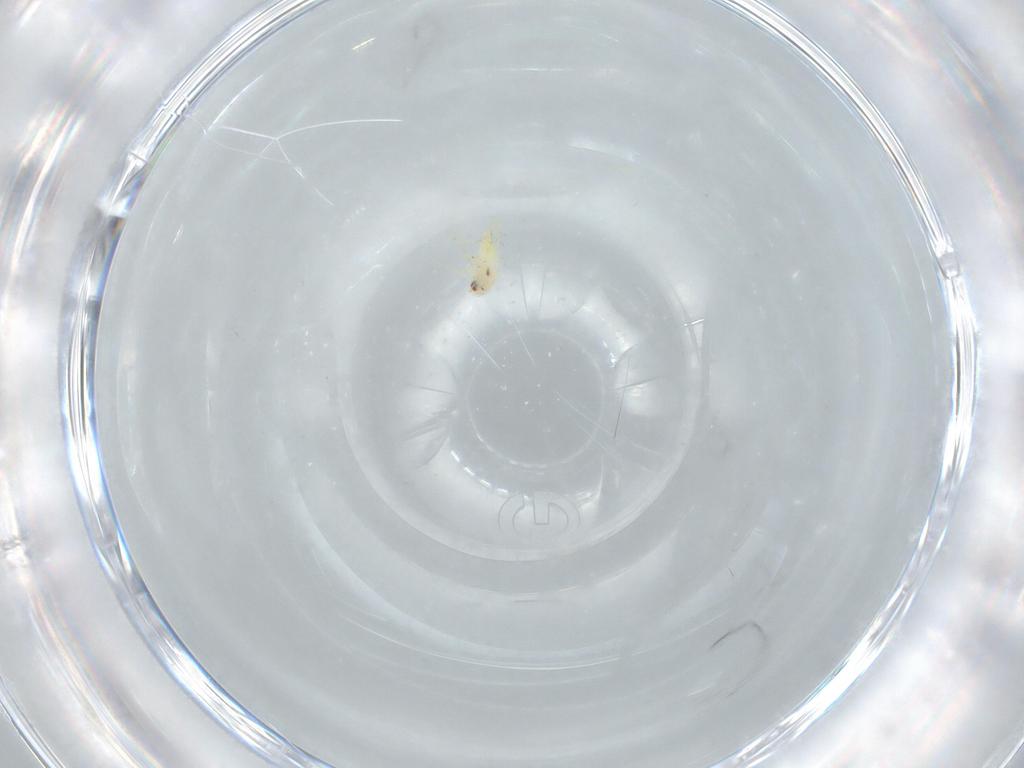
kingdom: Animalia
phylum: Arthropoda
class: Insecta
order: Hemiptera
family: Aleyrodidae
